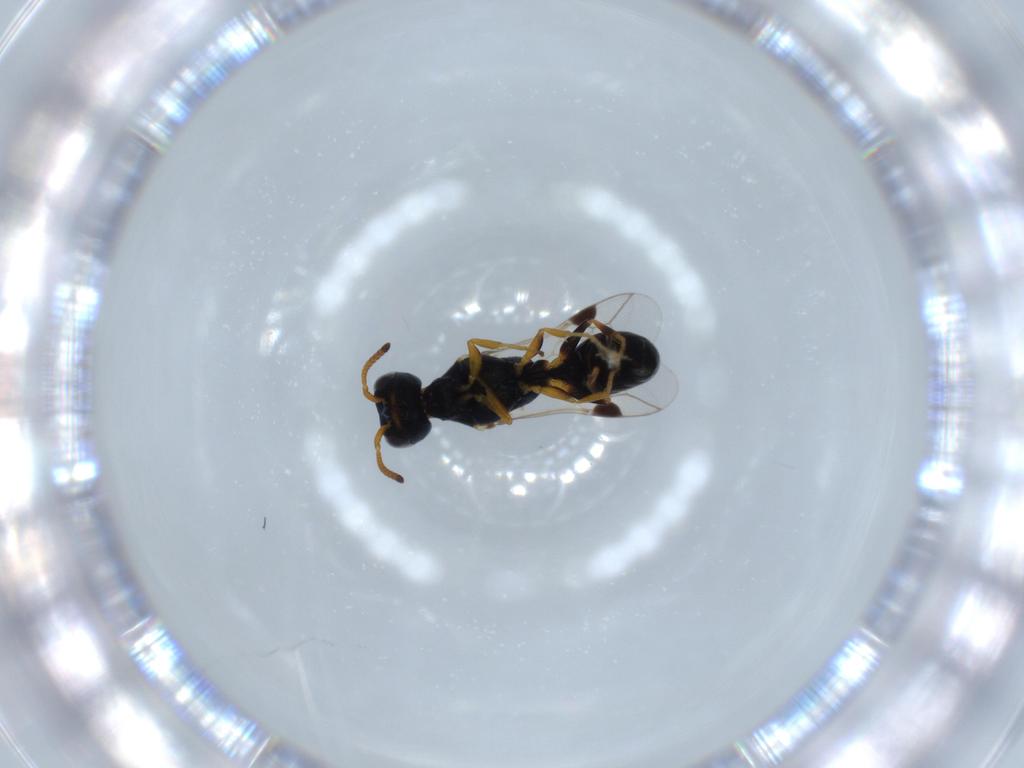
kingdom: Animalia
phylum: Arthropoda
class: Insecta
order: Hymenoptera
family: Pemphredonidae
